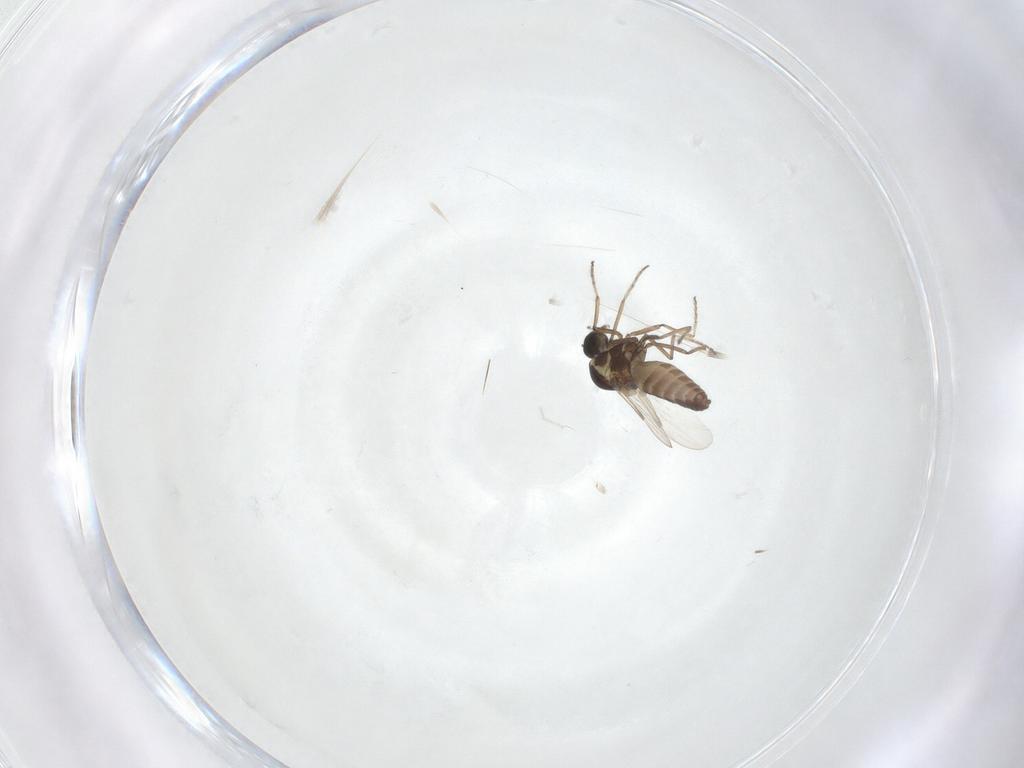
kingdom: Animalia
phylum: Arthropoda
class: Insecta
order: Diptera
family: Ceratopogonidae
